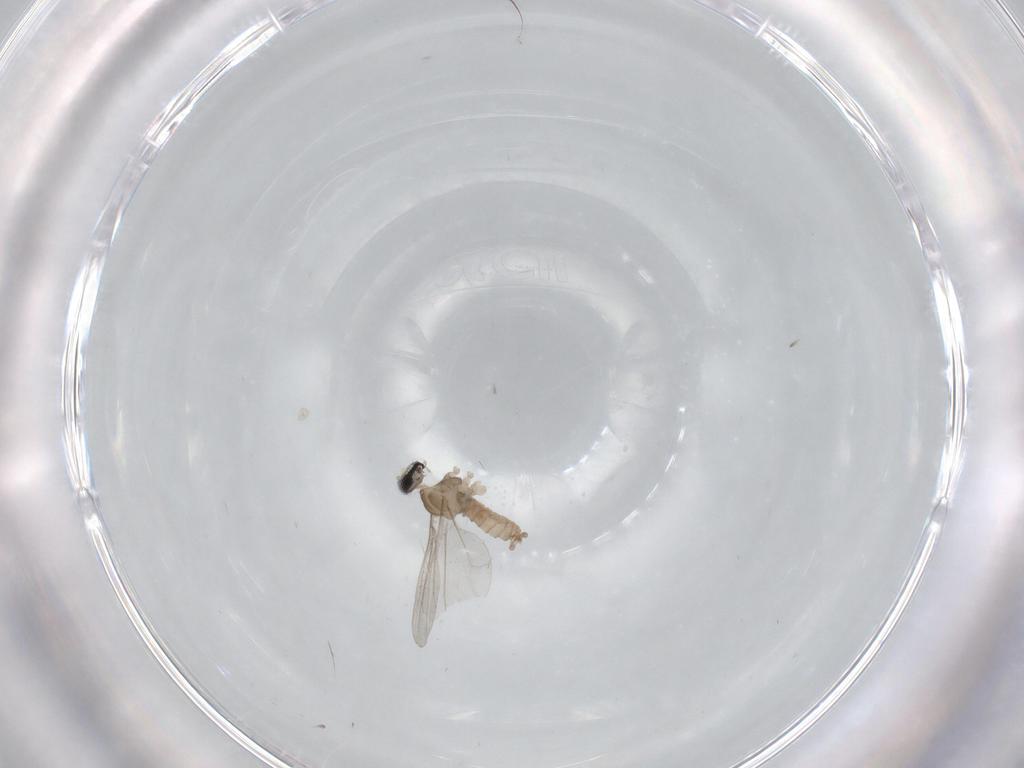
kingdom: Animalia
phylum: Arthropoda
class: Insecta
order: Diptera
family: Cecidomyiidae
